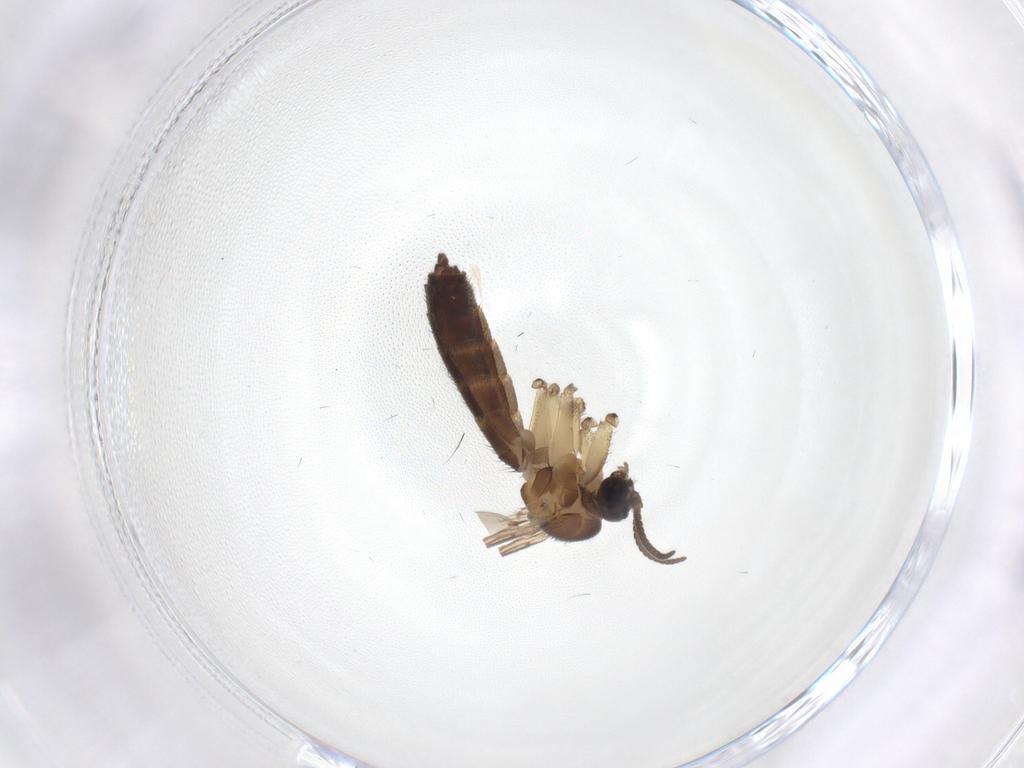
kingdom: Animalia
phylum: Arthropoda
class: Insecta
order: Diptera
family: Keroplatidae
